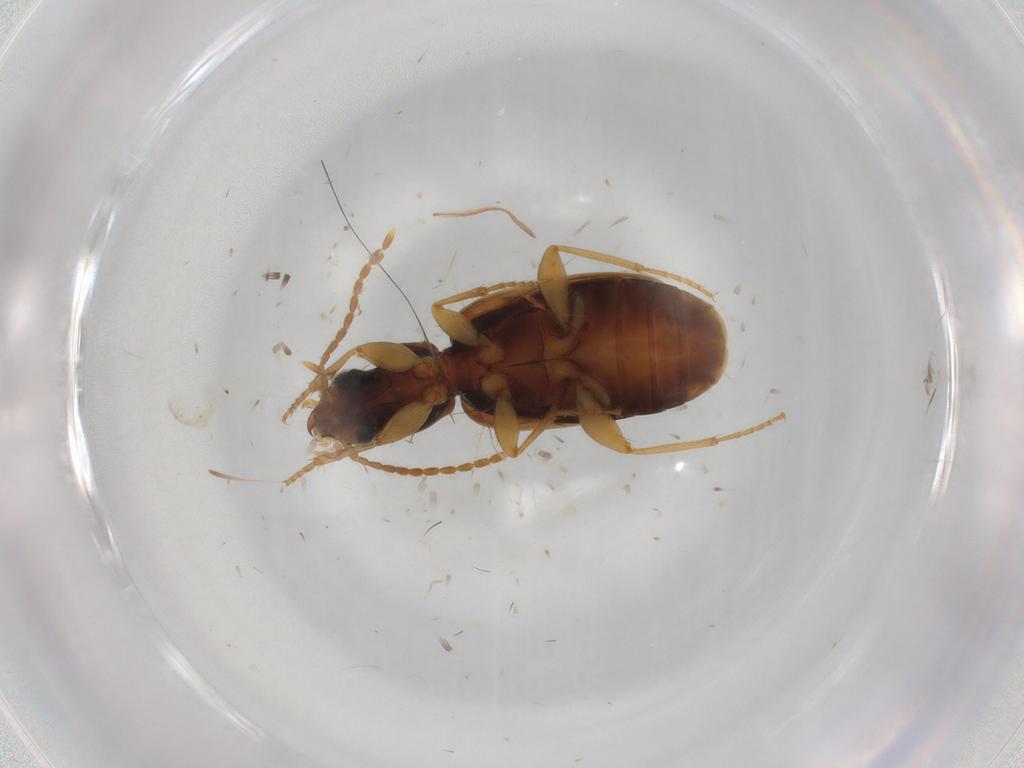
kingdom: Animalia
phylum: Arthropoda
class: Insecta
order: Coleoptera
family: Carabidae
